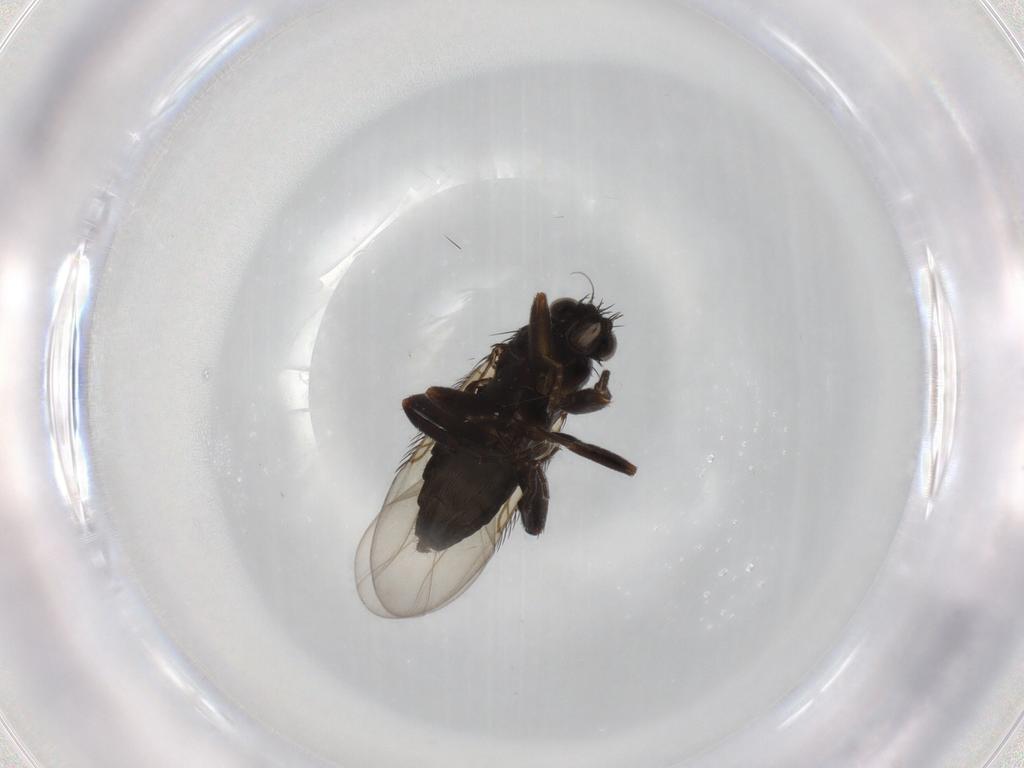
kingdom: Animalia
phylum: Arthropoda
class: Insecta
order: Diptera
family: Phoridae
